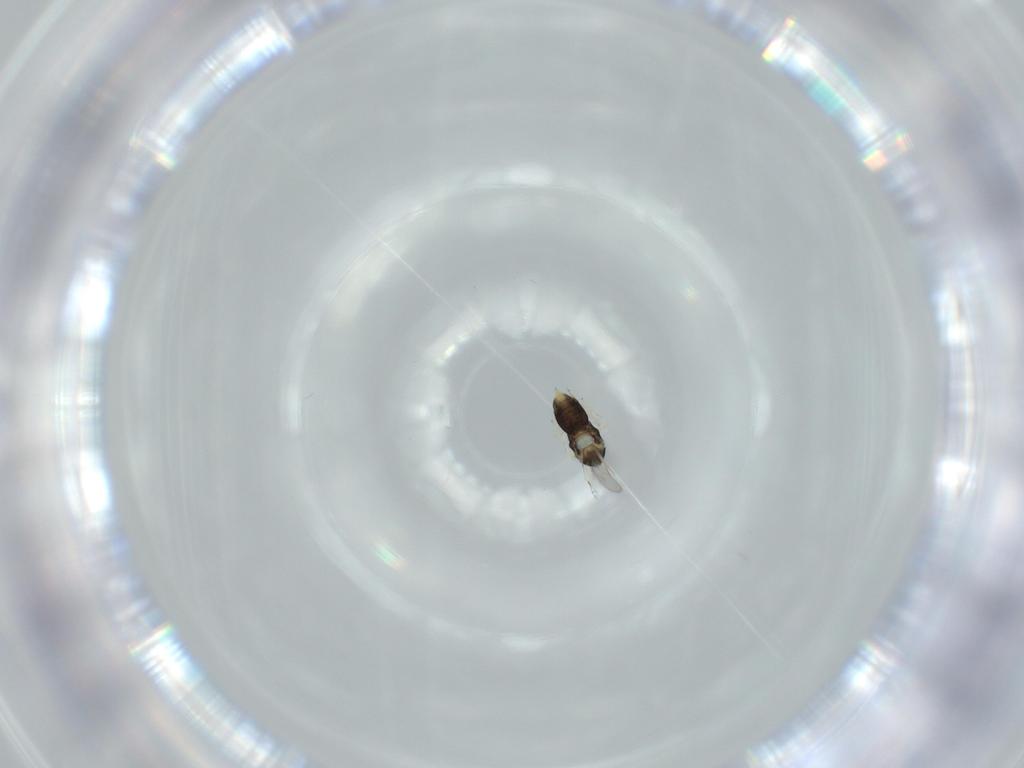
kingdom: Animalia
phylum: Arthropoda
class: Insecta
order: Hymenoptera
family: Aphelinidae
